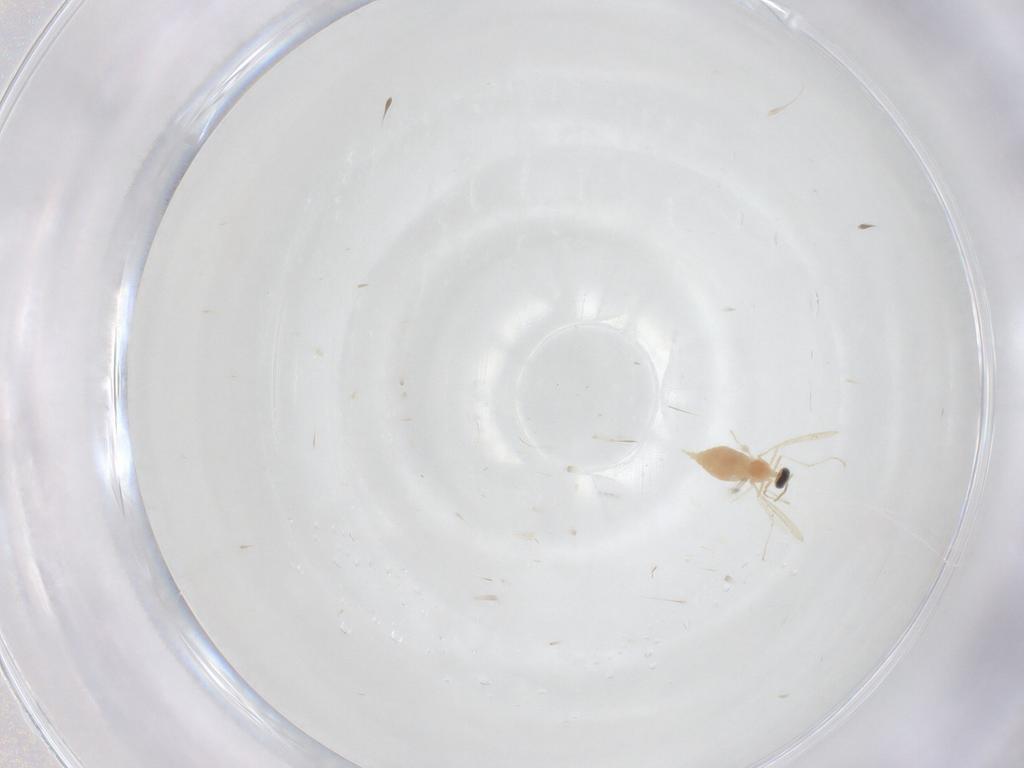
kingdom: Animalia
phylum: Arthropoda
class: Insecta
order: Diptera
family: Cecidomyiidae
